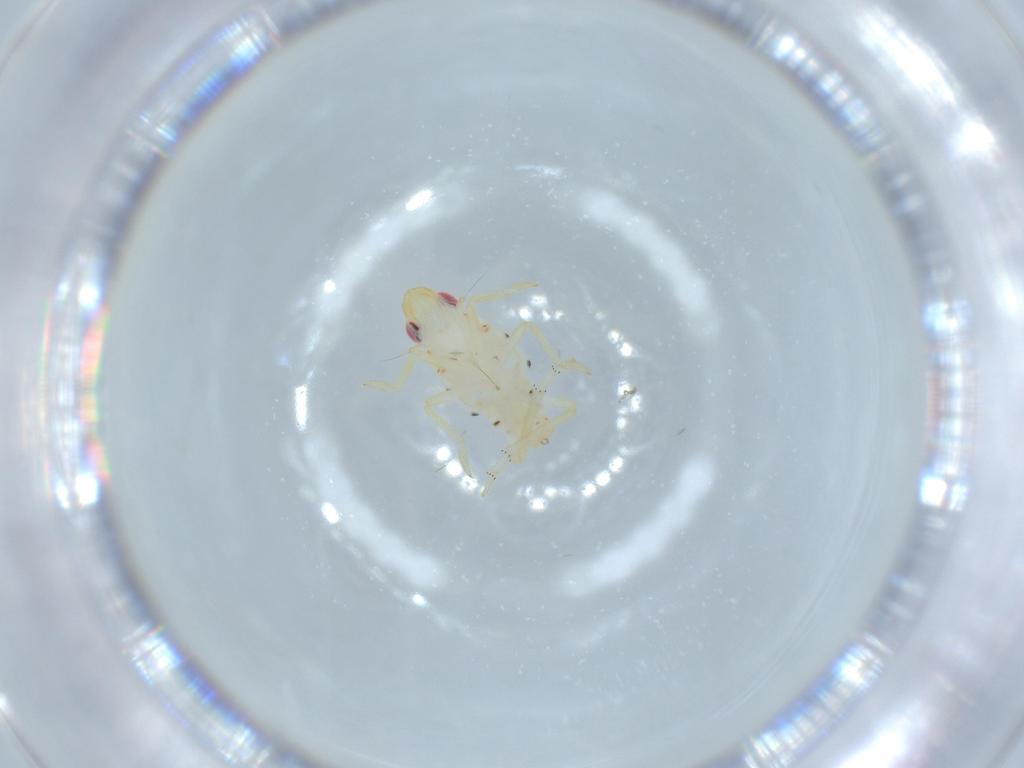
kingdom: Animalia
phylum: Arthropoda
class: Insecta
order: Hemiptera
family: Tropiduchidae
